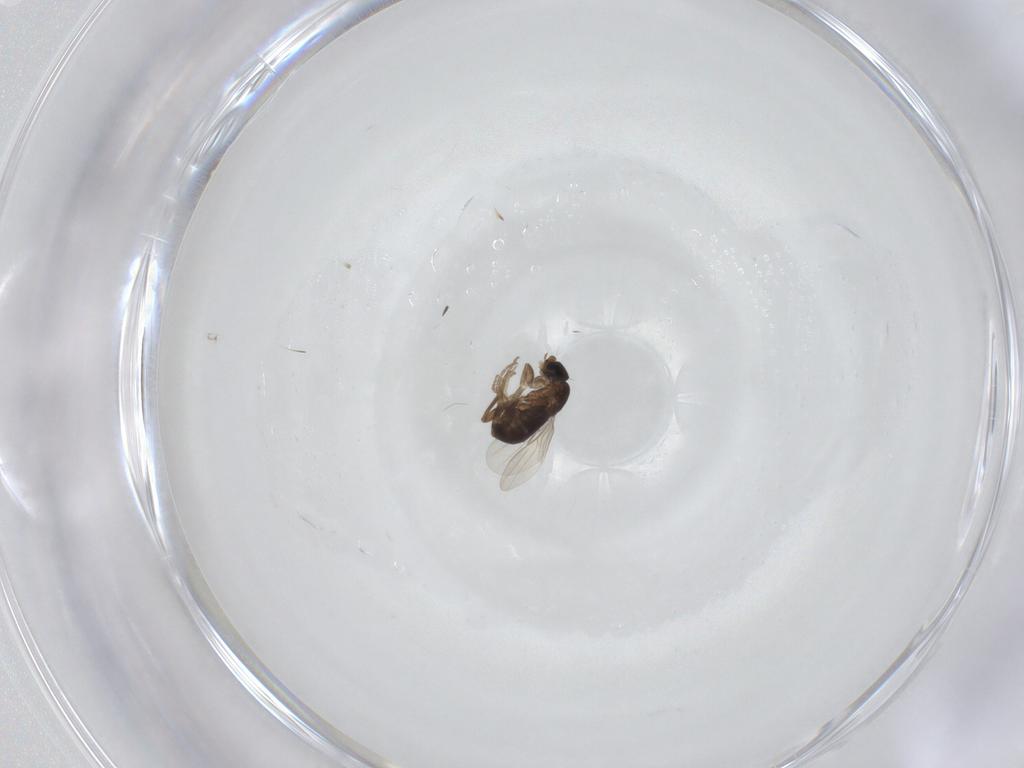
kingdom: Animalia
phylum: Arthropoda
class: Insecta
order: Diptera
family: Phoridae
